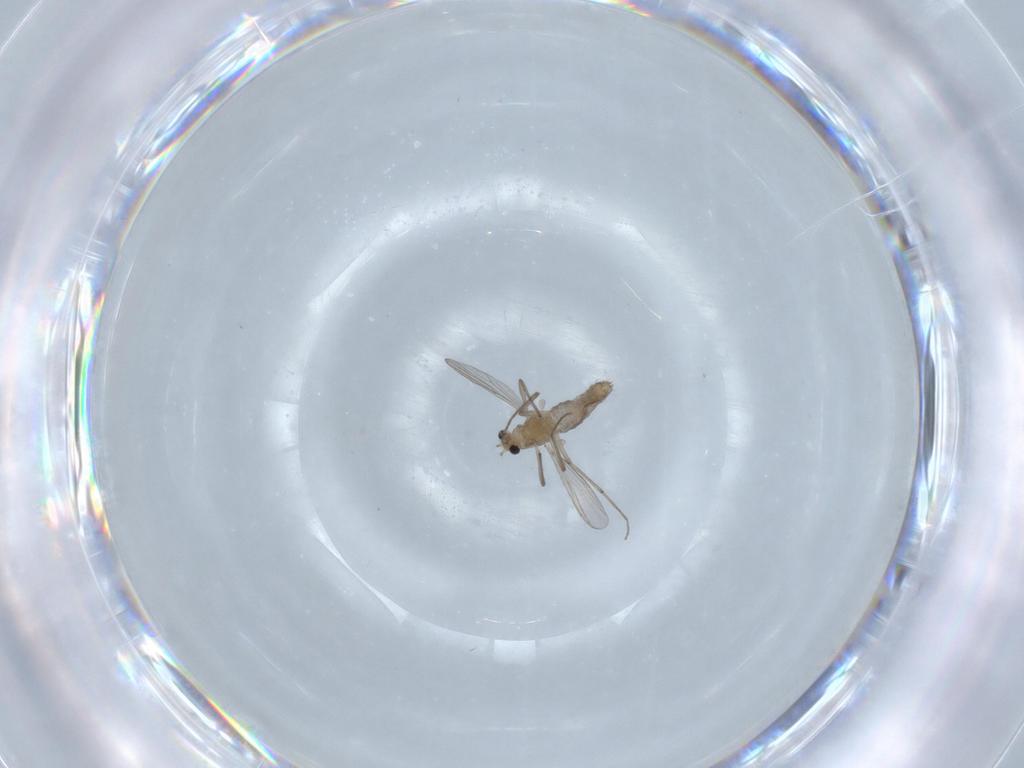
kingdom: Animalia
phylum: Arthropoda
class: Insecta
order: Diptera
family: Chironomidae
